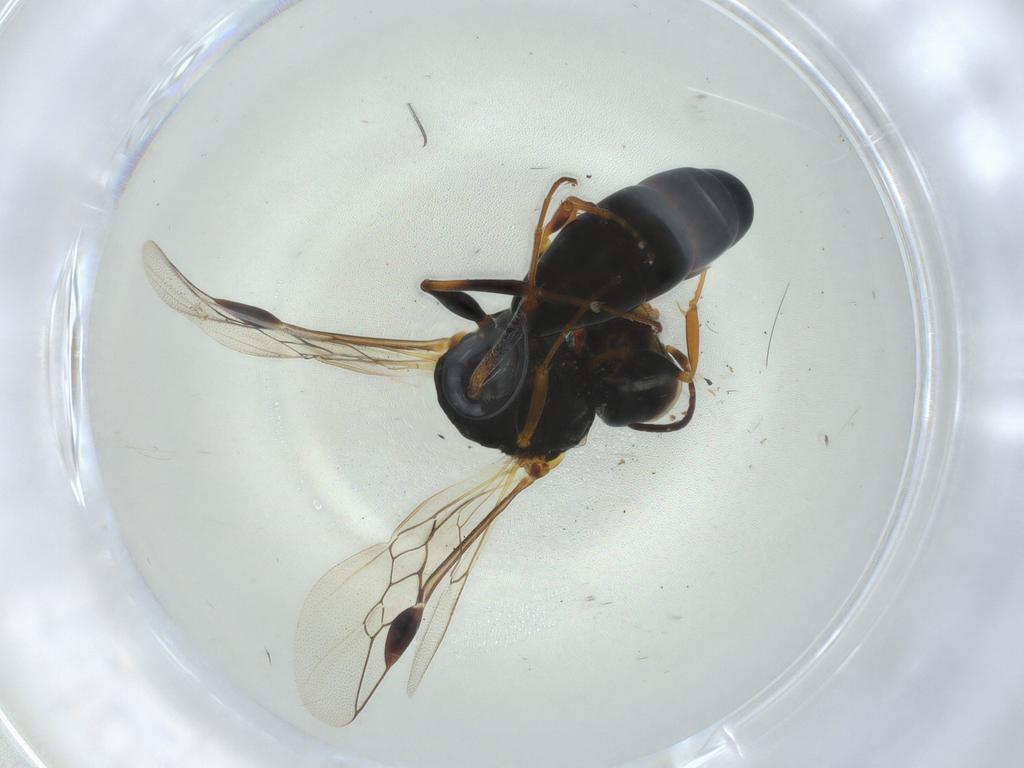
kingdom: Animalia
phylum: Arthropoda
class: Insecta
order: Hymenoptera
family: Pemphredonidae
